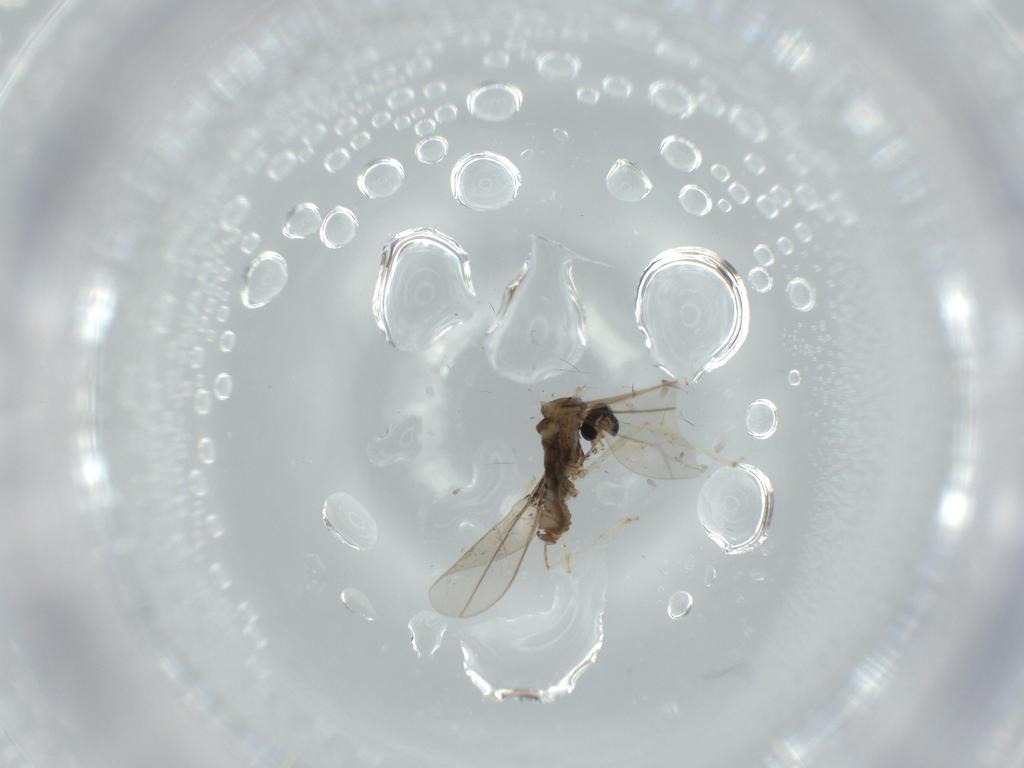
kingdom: Animalia
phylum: Arthropoda
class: Insecta
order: Diptera
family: Cecidomyiidae
